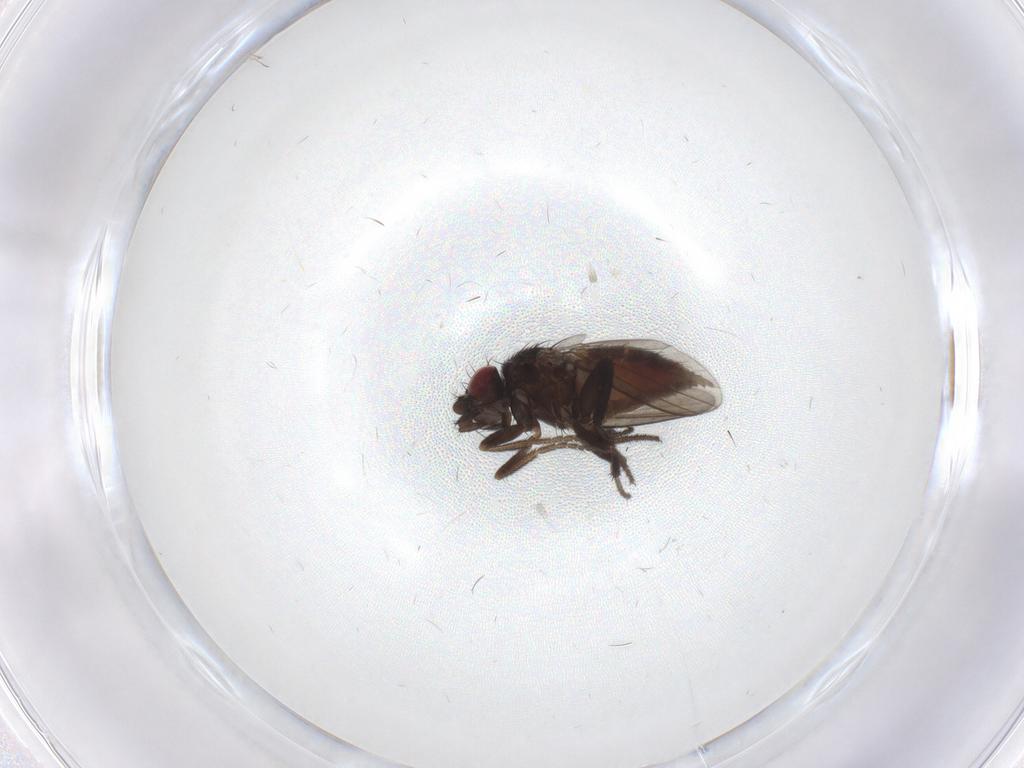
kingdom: Animalia
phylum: Arthropoda
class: Insecta
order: Diptera
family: Milichiidae
